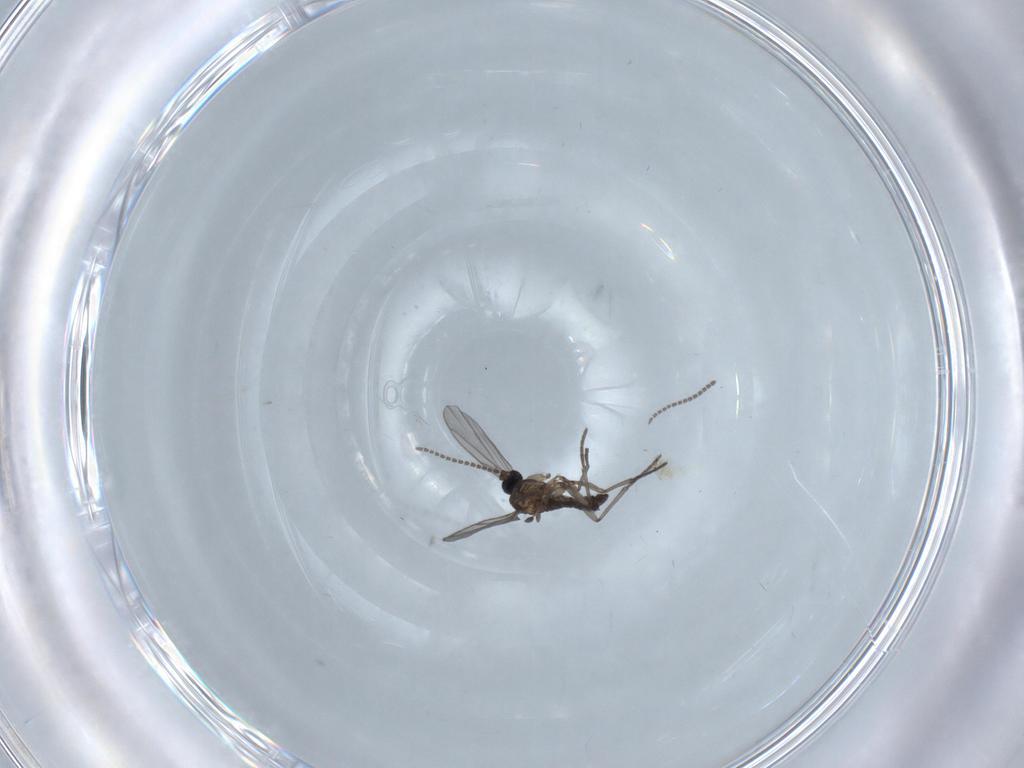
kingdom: Animalia
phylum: Arthropoda
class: Insecta
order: Diptera
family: Cecidomyiidae
